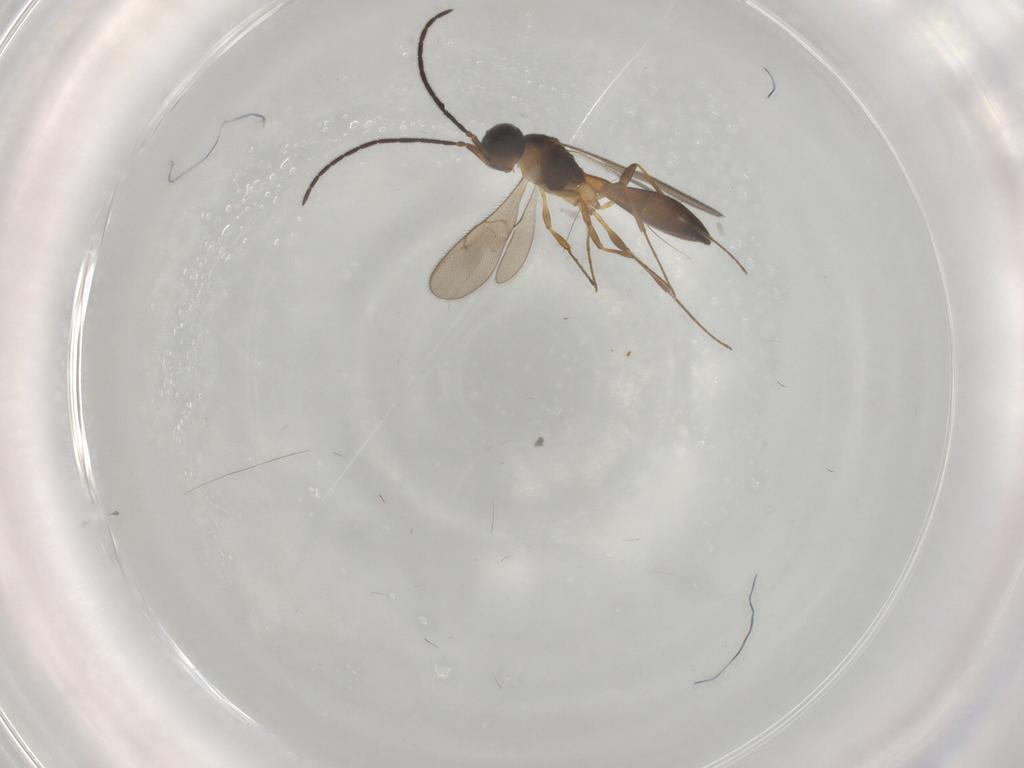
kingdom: Animalia
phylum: Arthropoda
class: Insecta
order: Hymenoptera
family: Scelionidae
